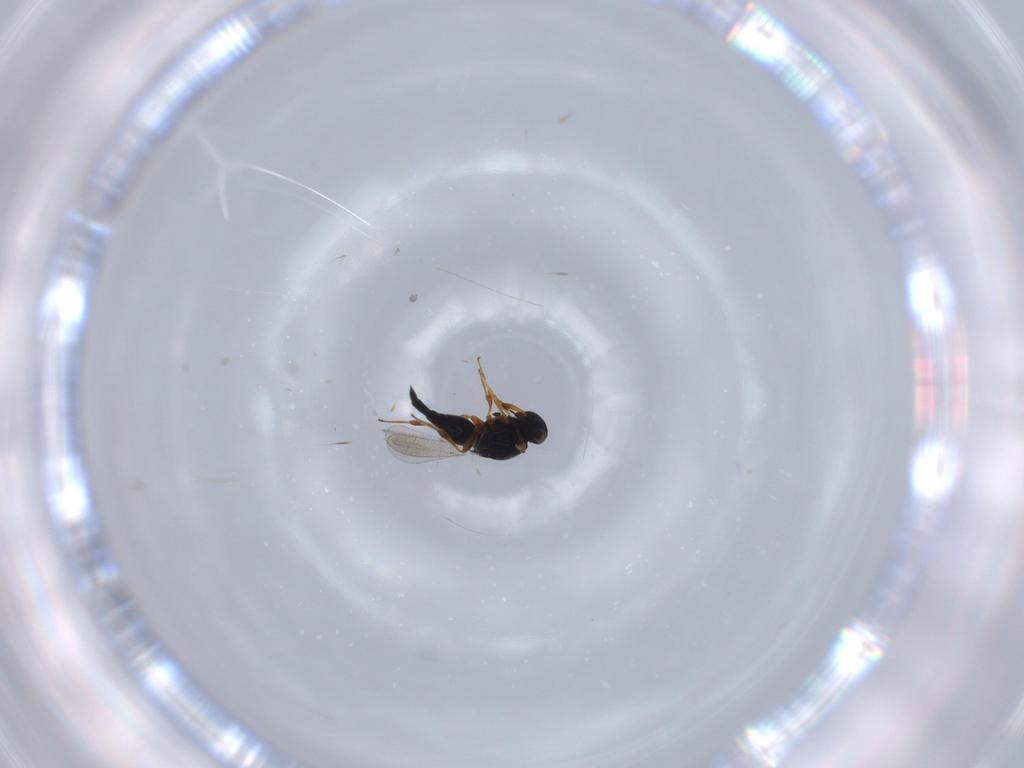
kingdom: Animalia
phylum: Arthropoda
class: Insecta
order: Hymenoptera
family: Platygastridae
